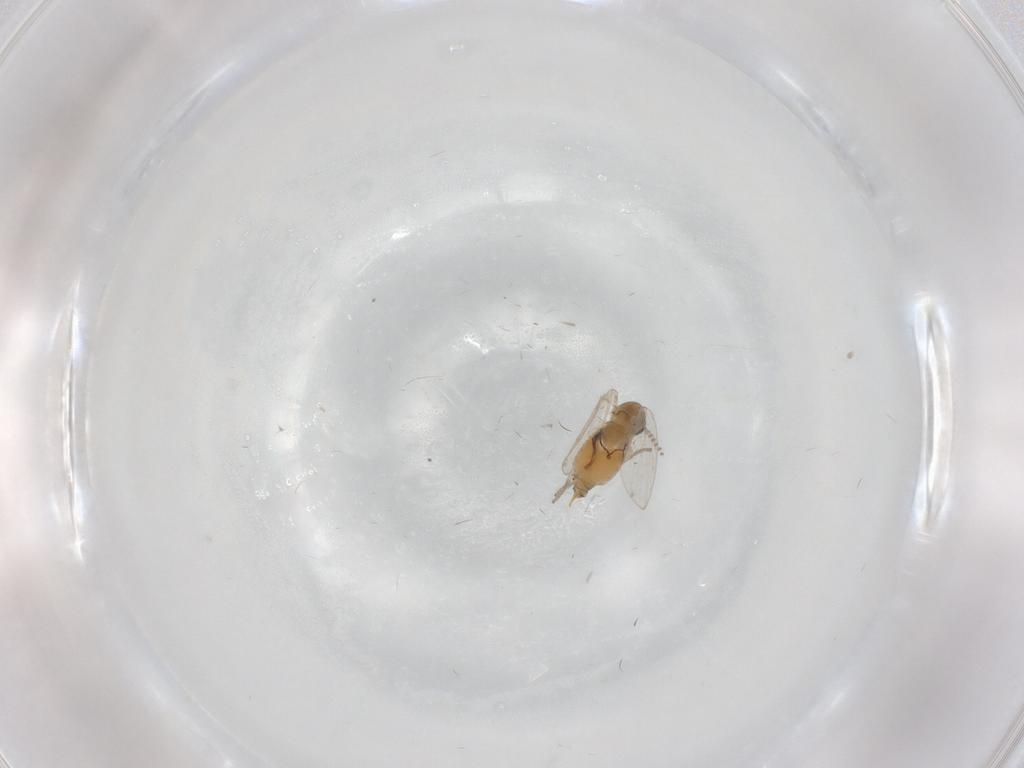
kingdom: Animalia
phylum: Arthropoda
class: Insecta
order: Diptera
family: Psychodidae
